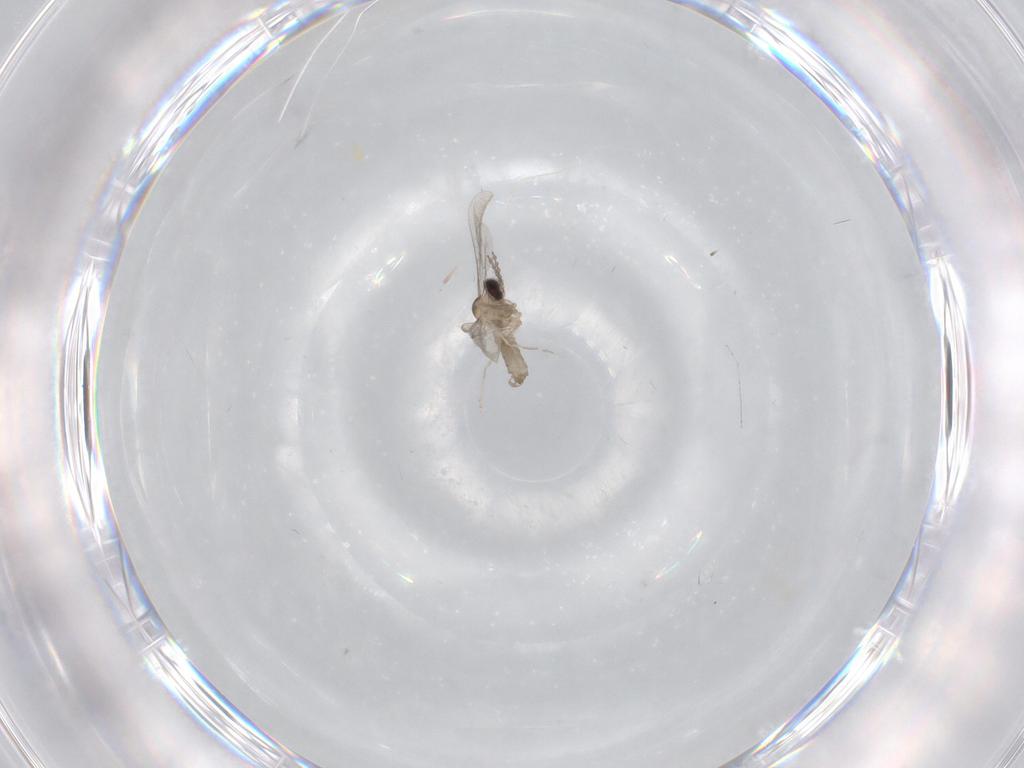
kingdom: Animalia
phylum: Arthropoda
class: Insecta
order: Diptera
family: Cecidomyiidae
